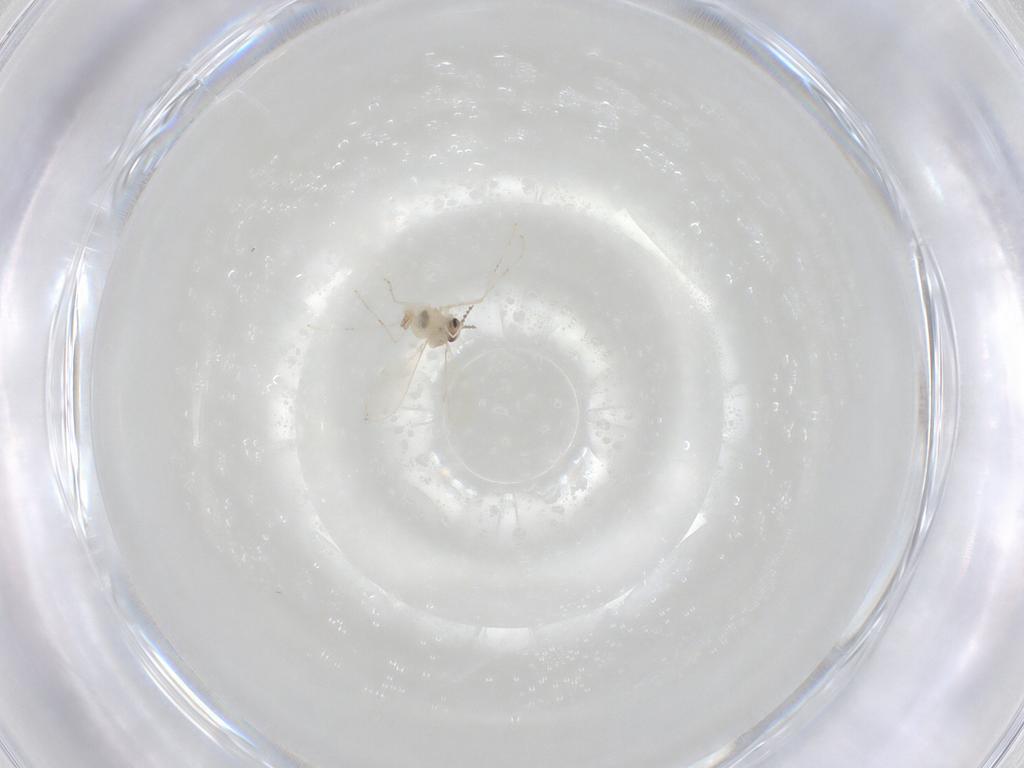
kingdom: Animalia
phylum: Arthropoda
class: Insecta
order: Diptera
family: Cecidomyiidae
